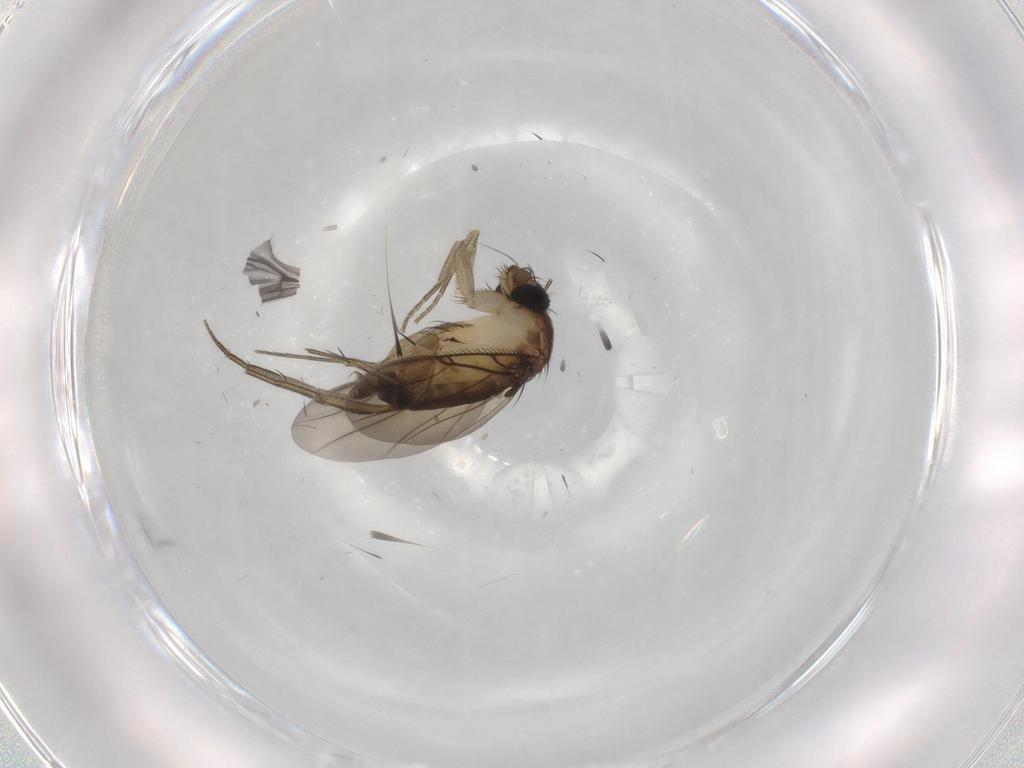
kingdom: Animalia
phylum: Arthropoda
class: Insecta
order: Diptera
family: Sciaridae
